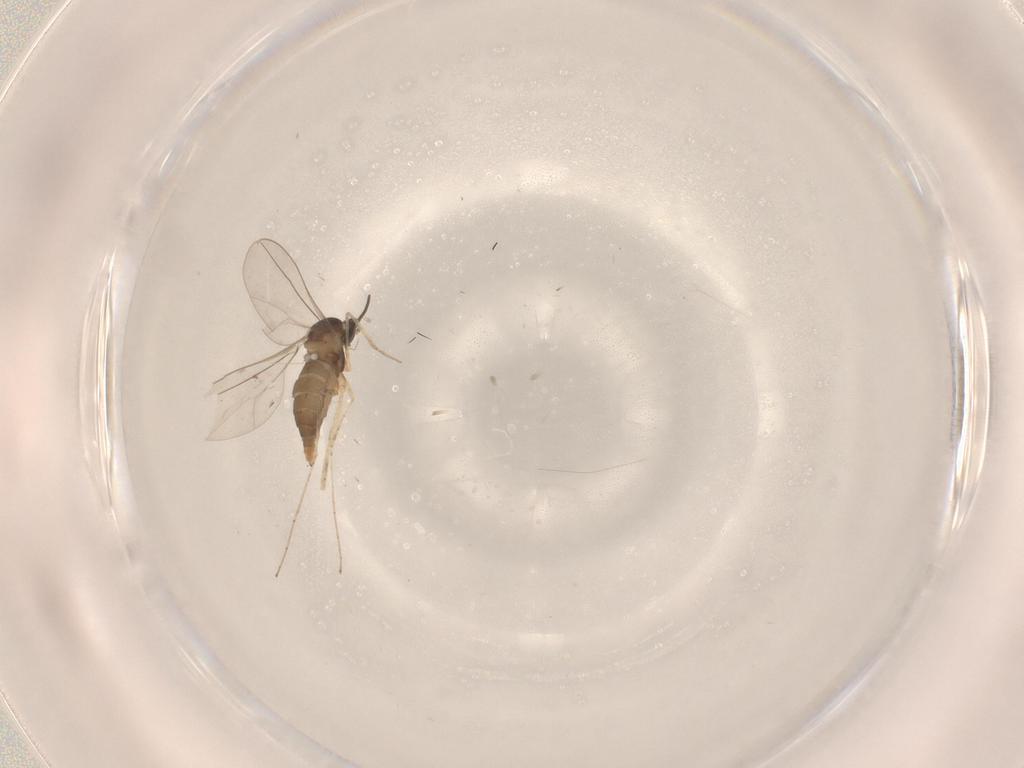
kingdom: Animalia
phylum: Arthropoda
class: Insecta
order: Diptera
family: Cecidomyiidae
